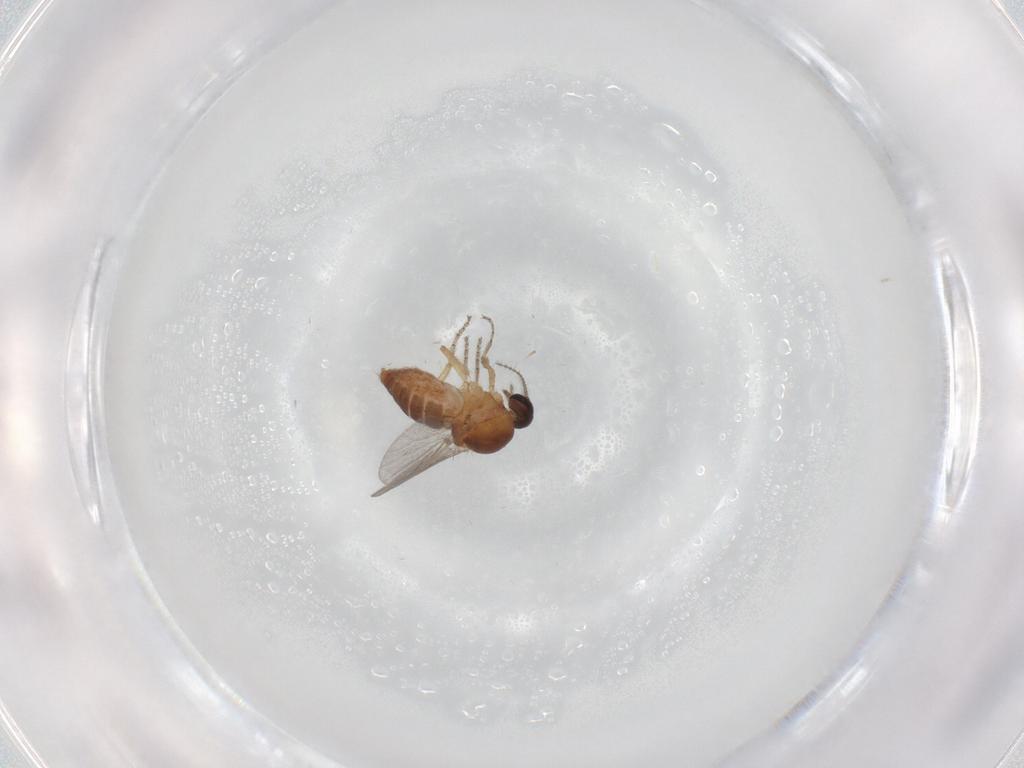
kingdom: Animalia
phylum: Arthropoda
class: Insecta
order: Diptera
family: Ceratopogonidae
